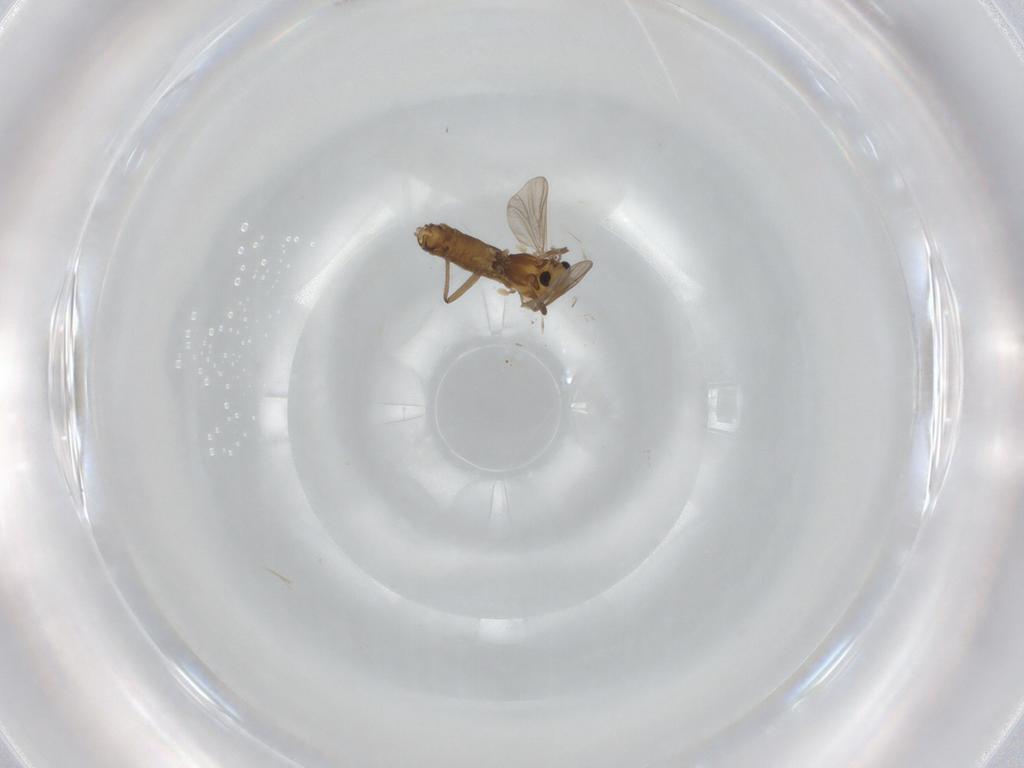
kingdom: Animalia
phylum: Arthropoda
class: Insecta
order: Diptera
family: Chironomidae
